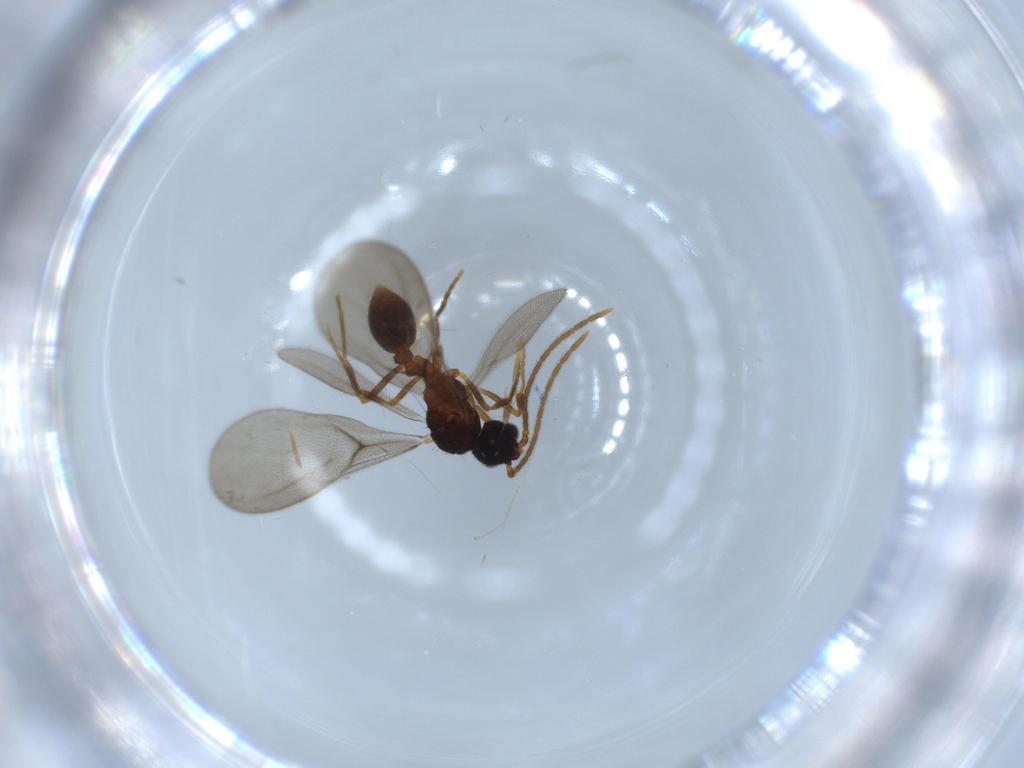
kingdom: Animalia
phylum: Arthropoda
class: Insecta
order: Hymenoptera
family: Formicidae
